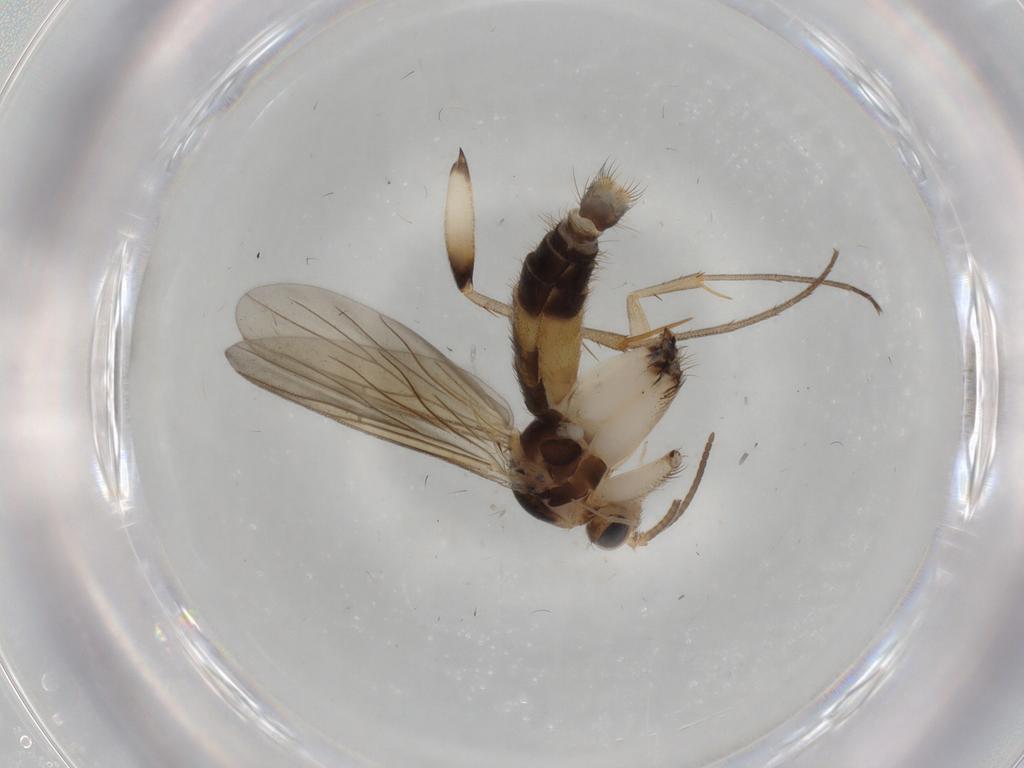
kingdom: Animalia
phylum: Arthropoda
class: Insecta
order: Diptera
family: Mycetophilidae
